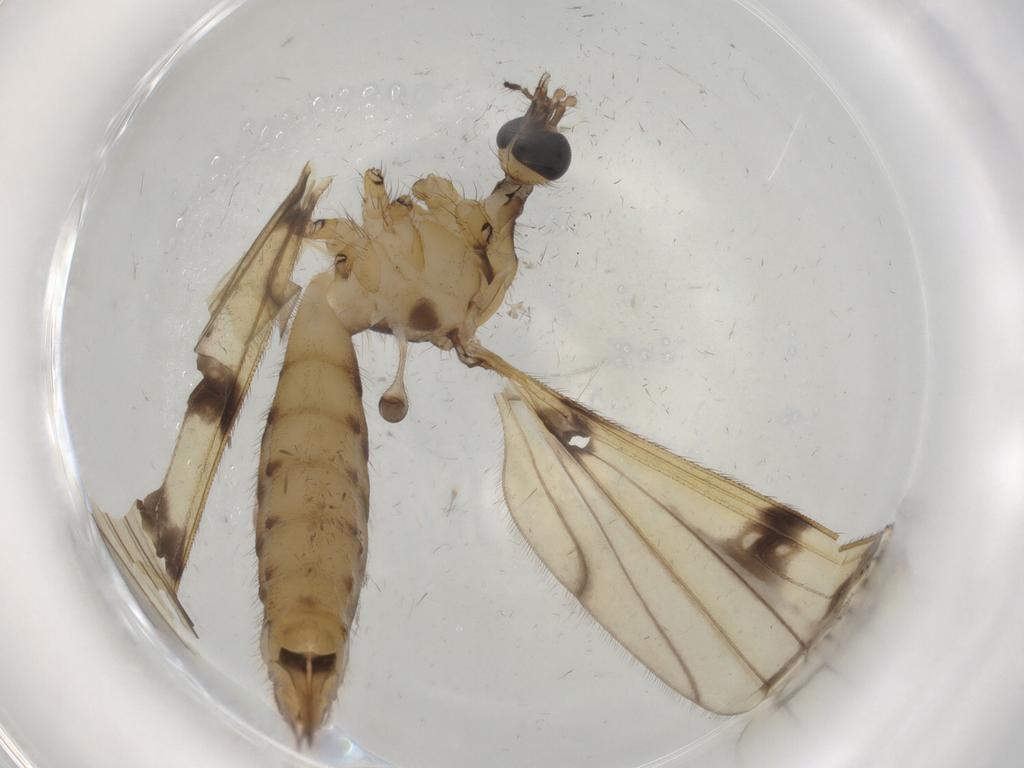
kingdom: Animalia
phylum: Arthropoda
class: Insecta
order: Diptera
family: Limoniidae
